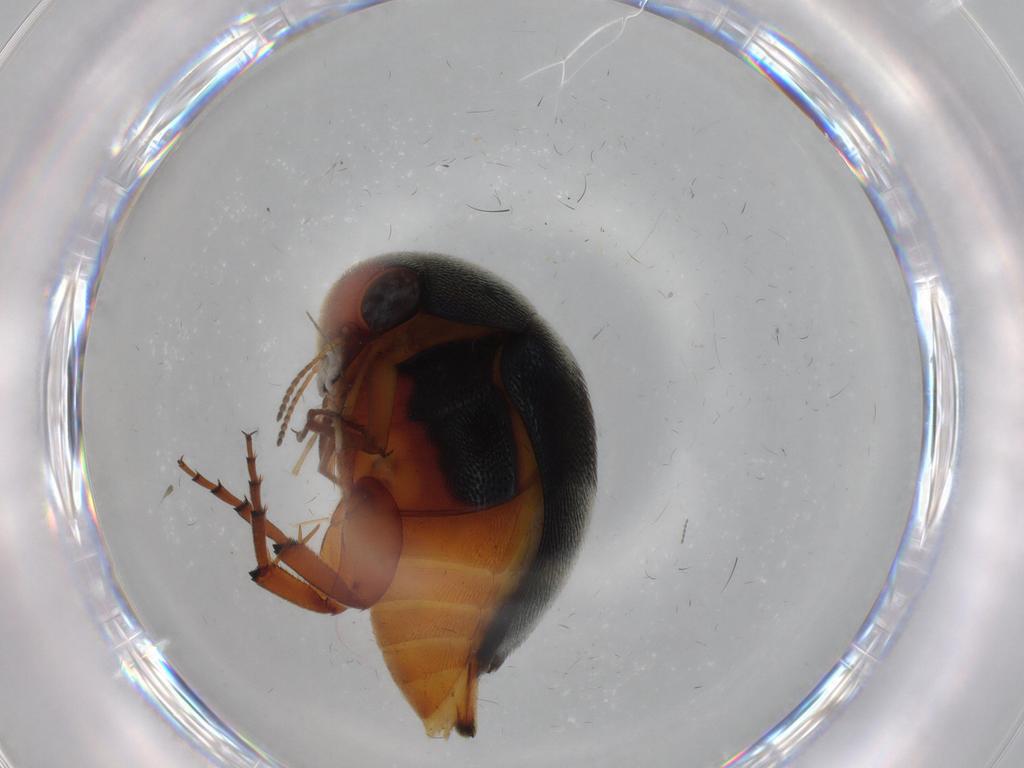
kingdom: Animalia
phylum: Arthropoda
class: Insecta
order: Coleoptera
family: Mordellidae
